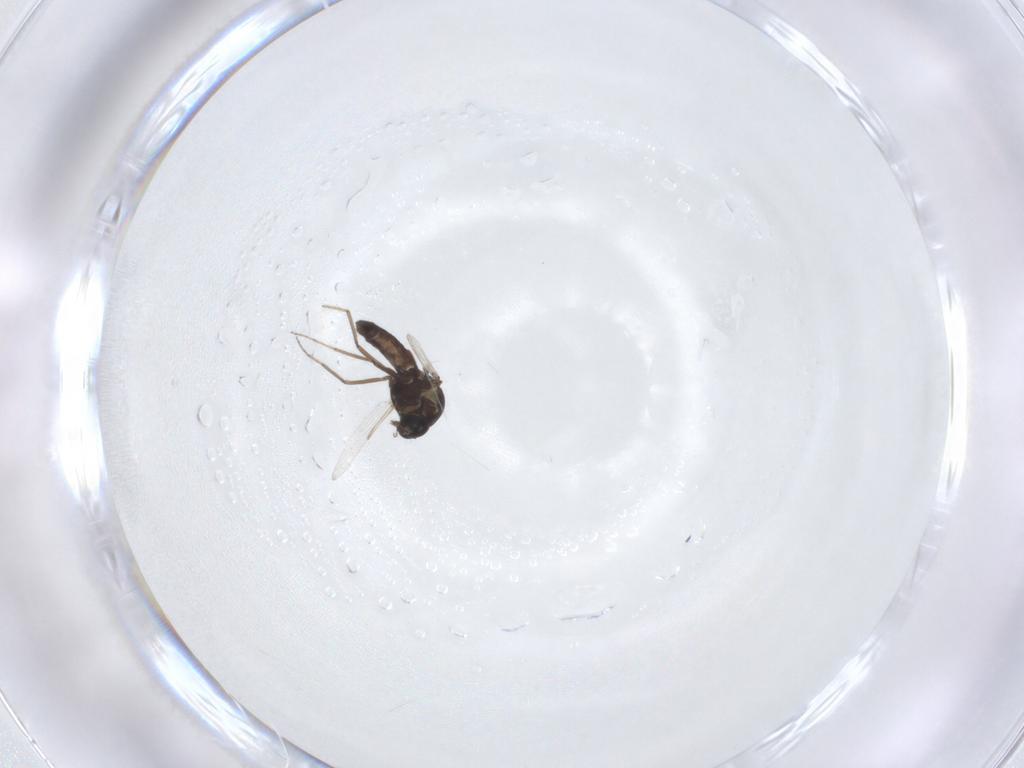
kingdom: Animalia
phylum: Arthropoda
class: Insecta
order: Diptera
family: Ceratopogonidae
